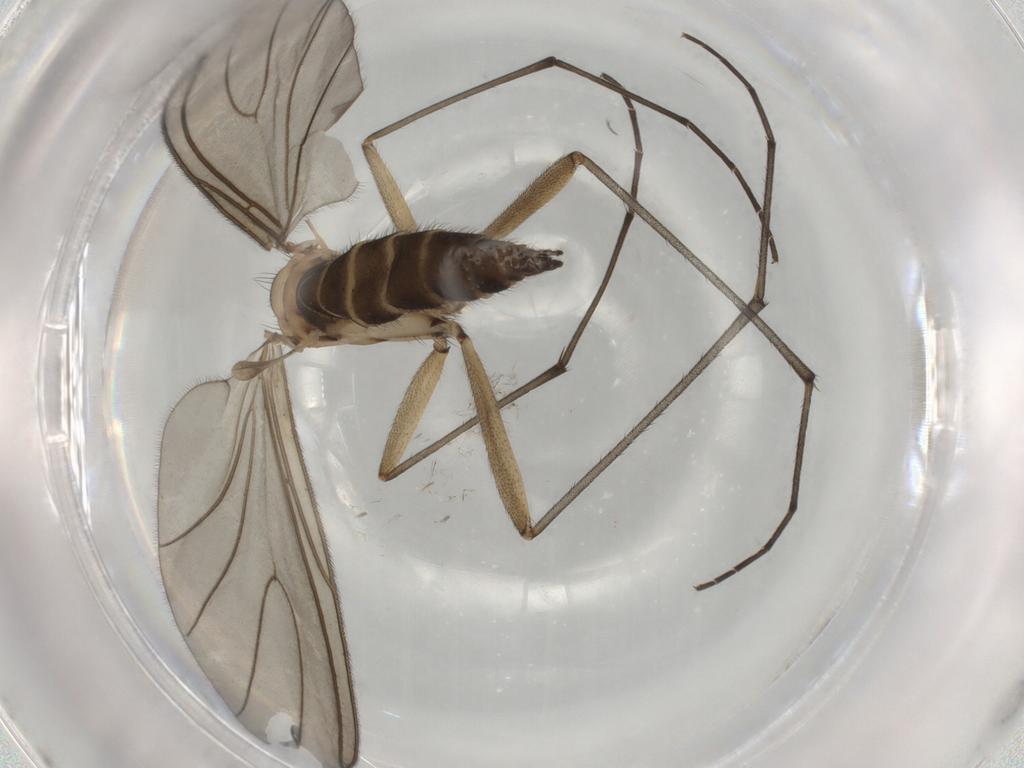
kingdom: Animalia
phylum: Arthropoda
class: Insecta
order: Diptera
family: Sciaridae
